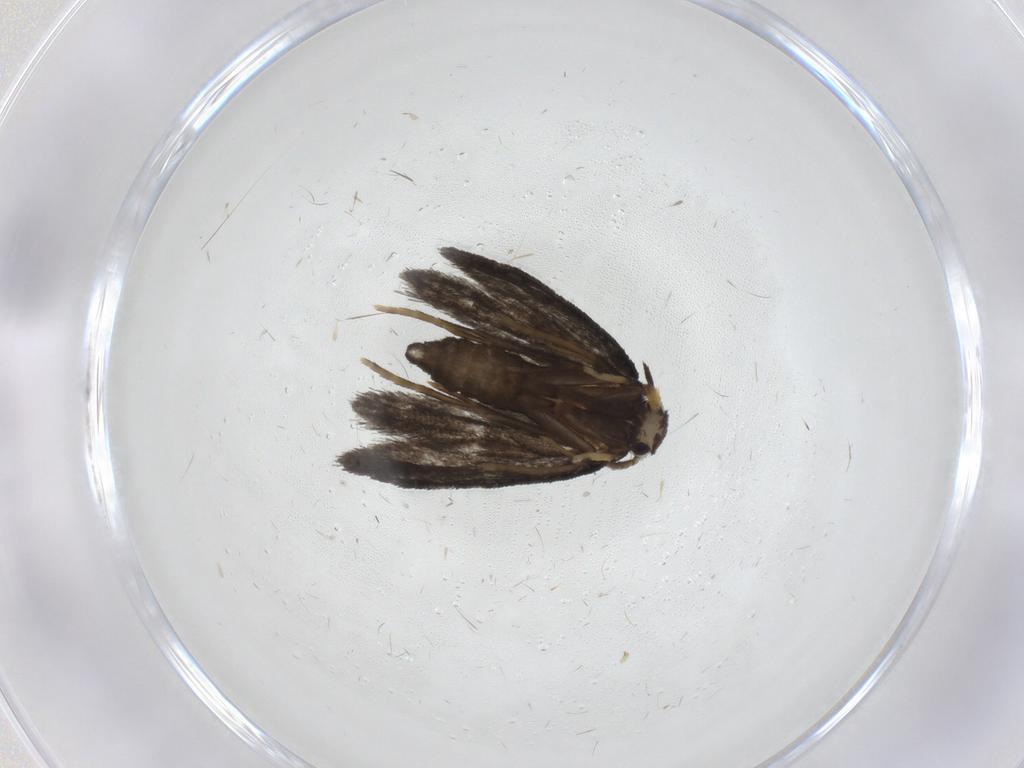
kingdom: Animalia
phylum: Arthropoda
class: Insecta
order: Lepidoptera
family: Psychidae
